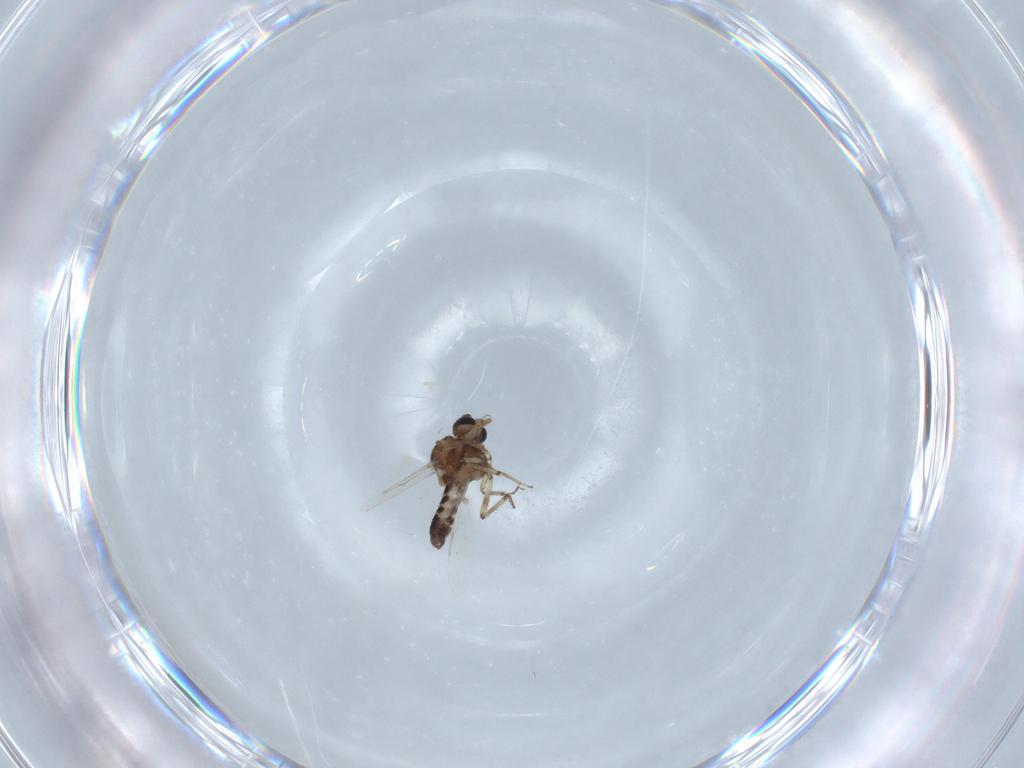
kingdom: Animalia
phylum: Arthropoda
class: Insecta
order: Diptera
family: Ceratopogonidae
